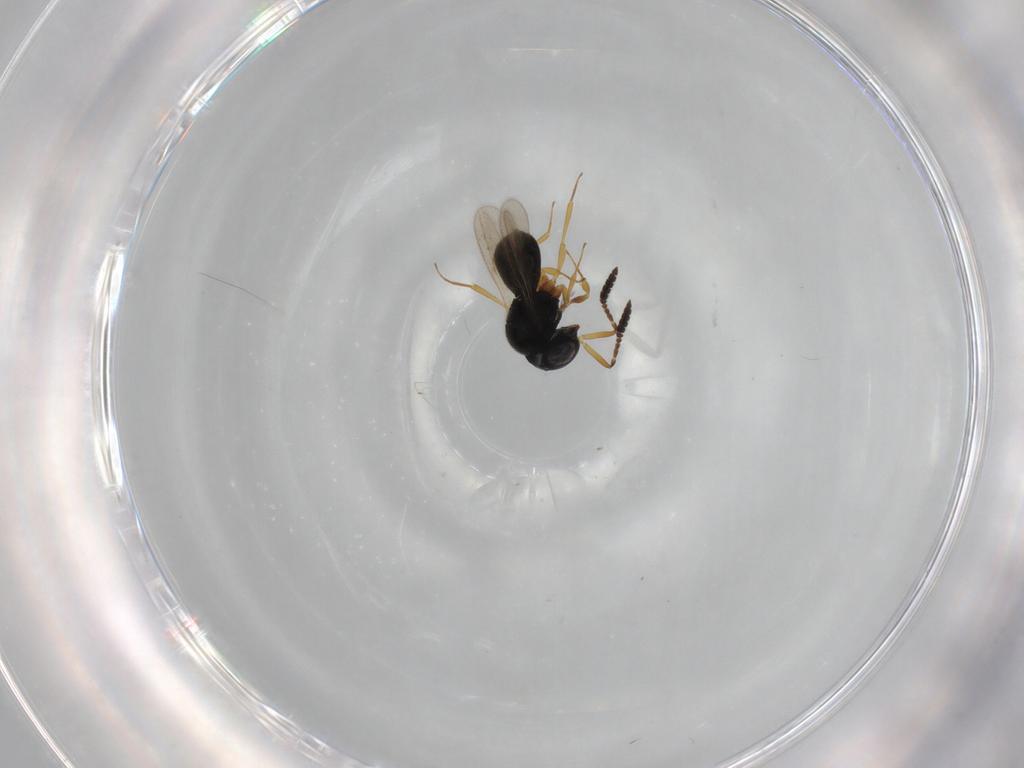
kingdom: Animalia
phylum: Arthropoda
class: Insecta
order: Hymenoptera
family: Scelionidae
